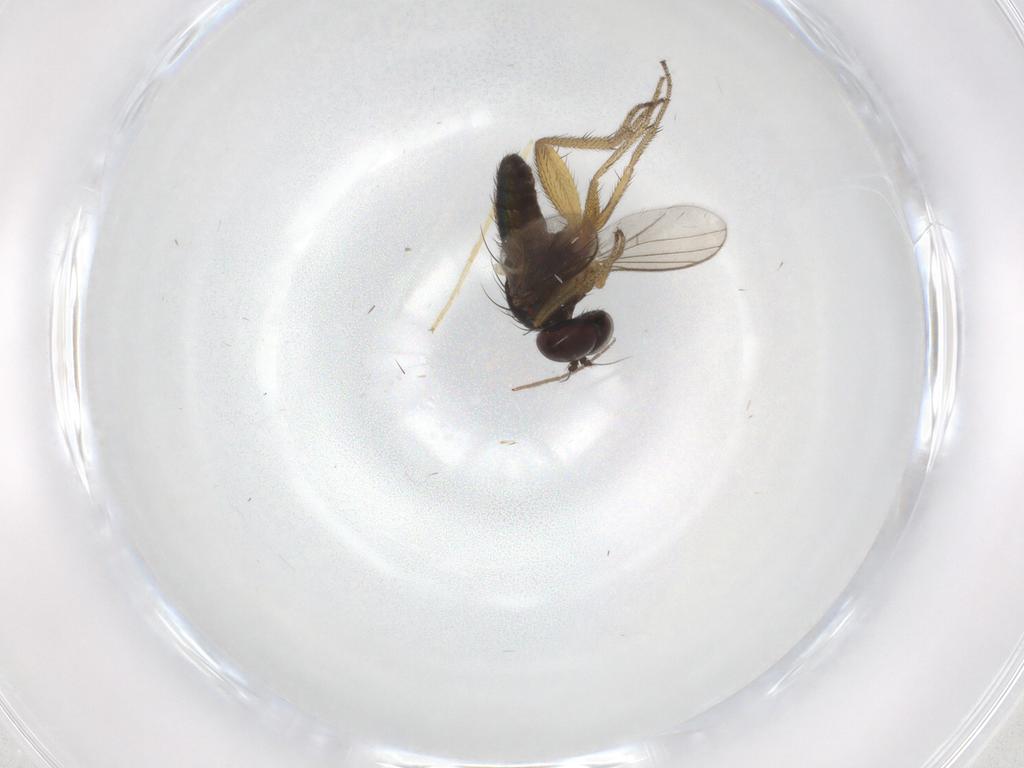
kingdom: Animalia
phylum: Arthropoda
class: Insecta
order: Diptera
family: Chironomidae
